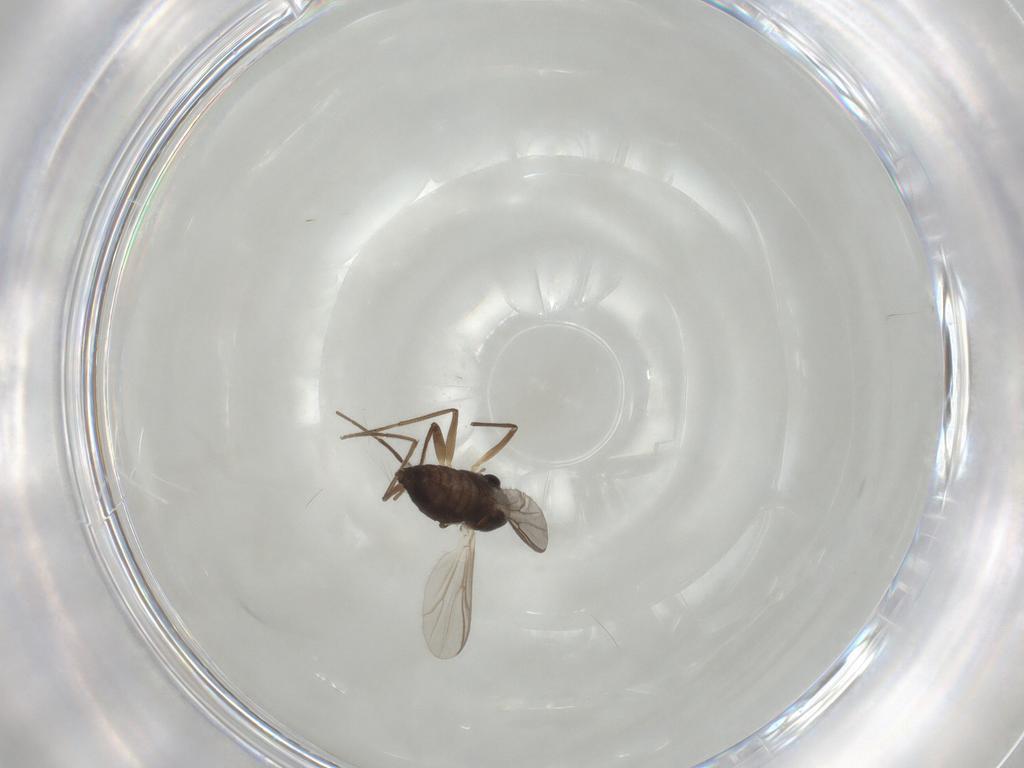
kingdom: Animalia
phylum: Arthropoda
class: Insecta
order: Diptera
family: Chironomidae
